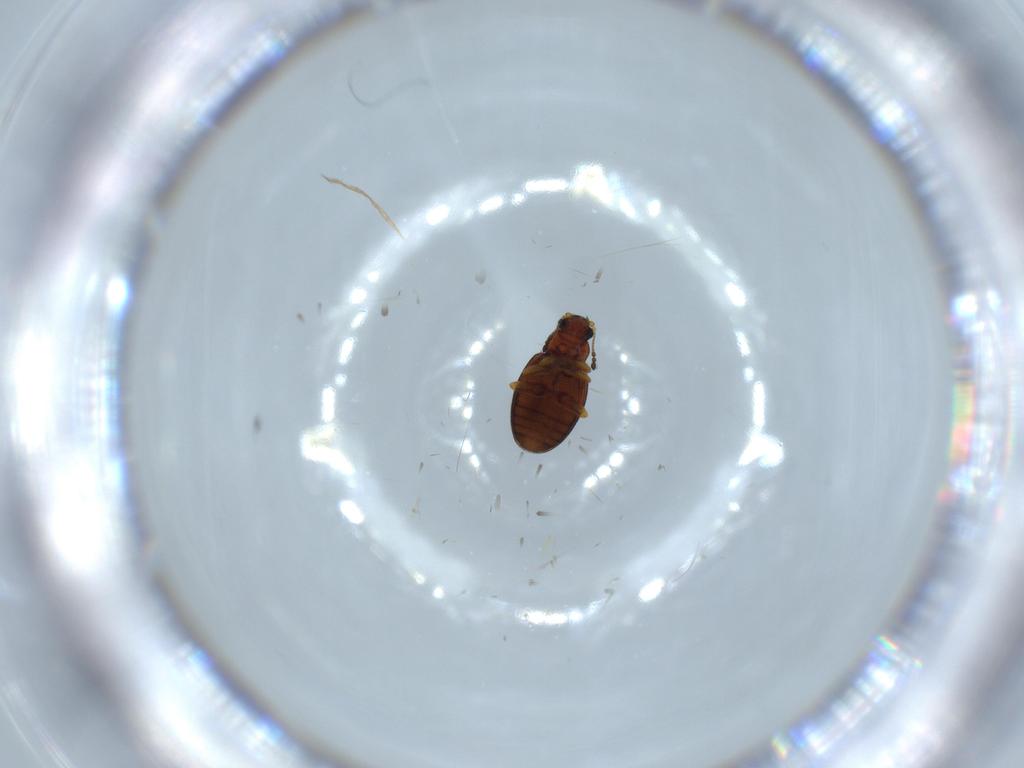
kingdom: Animalia
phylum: Arthropoda
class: Insecta
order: Coleoptera
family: Latridiidae
